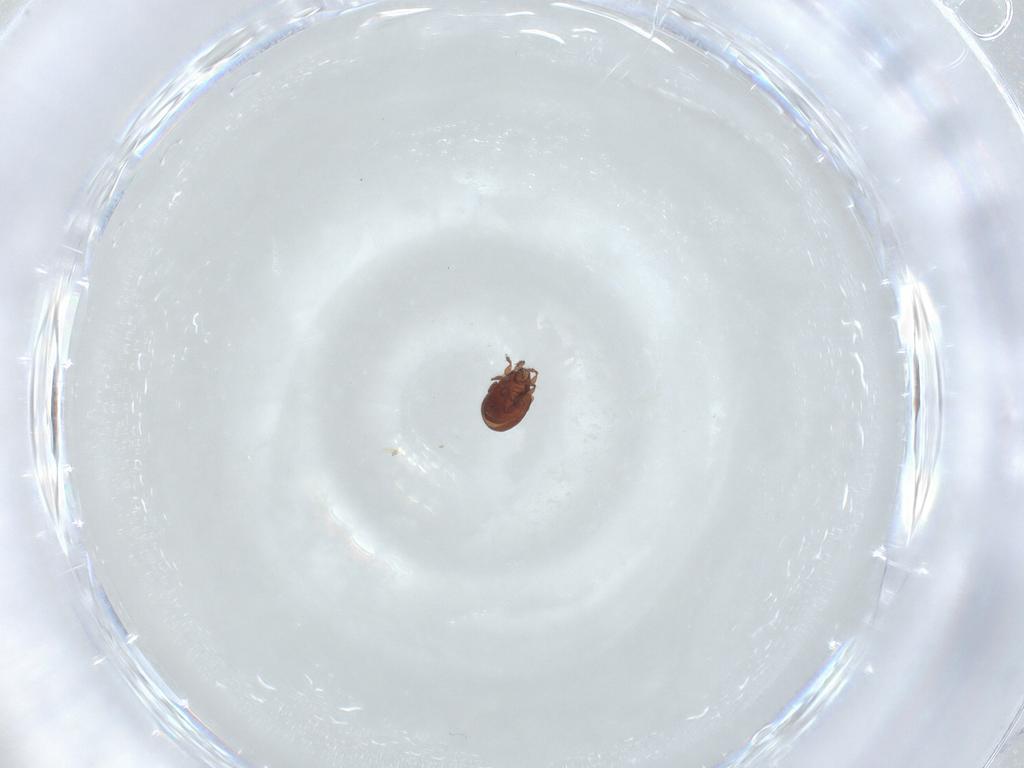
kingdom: Animalia
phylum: Arthropoda
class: Arachnida
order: Sarcoptiformes
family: Humerobatidae
